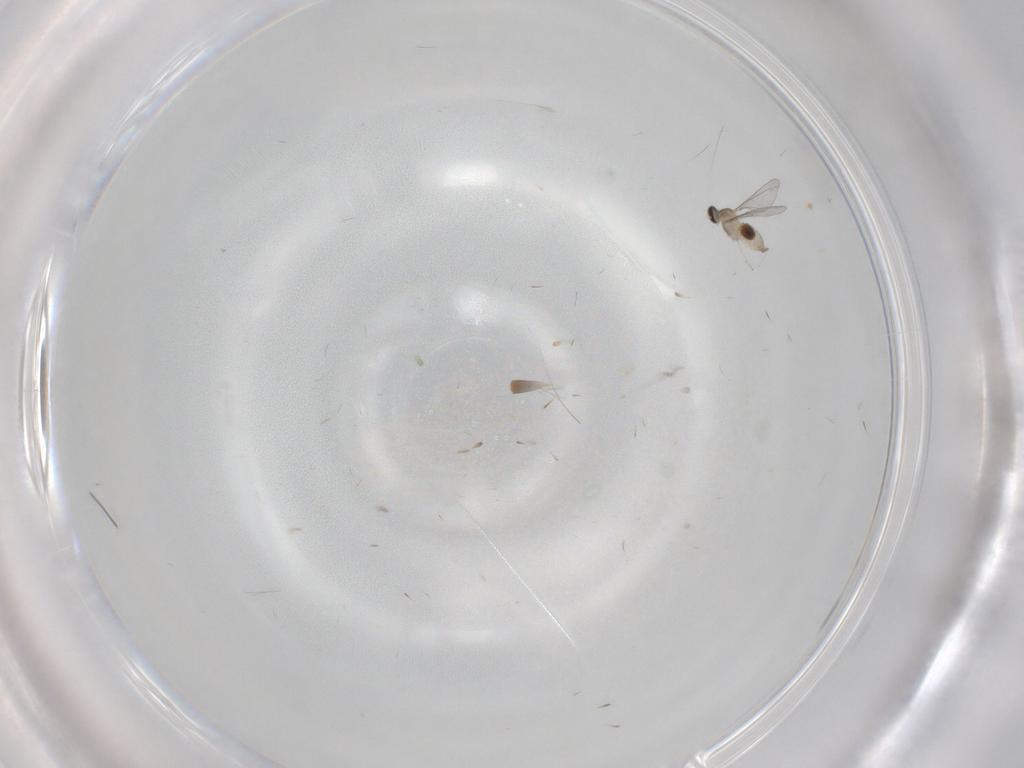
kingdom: Animalia
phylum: Arthropoda
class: Insecta
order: Diptera
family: Cecidomyiidae
